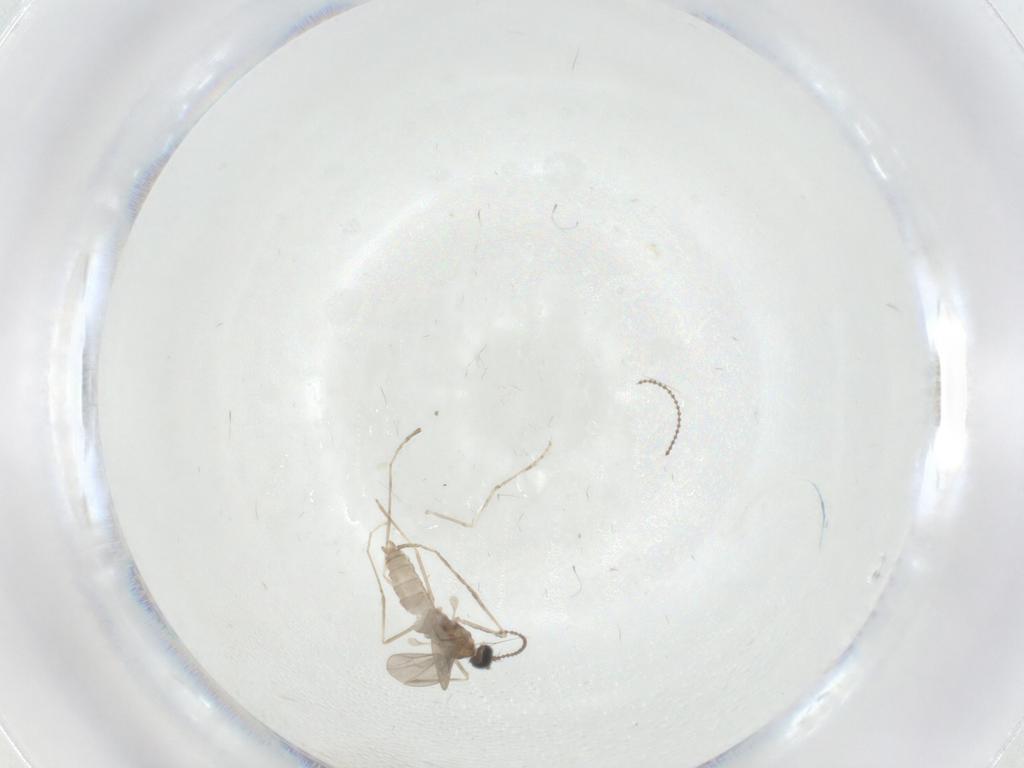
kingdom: Animalia
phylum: Arthropoda
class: Insecta
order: Diptera
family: Cecidomyiidae
